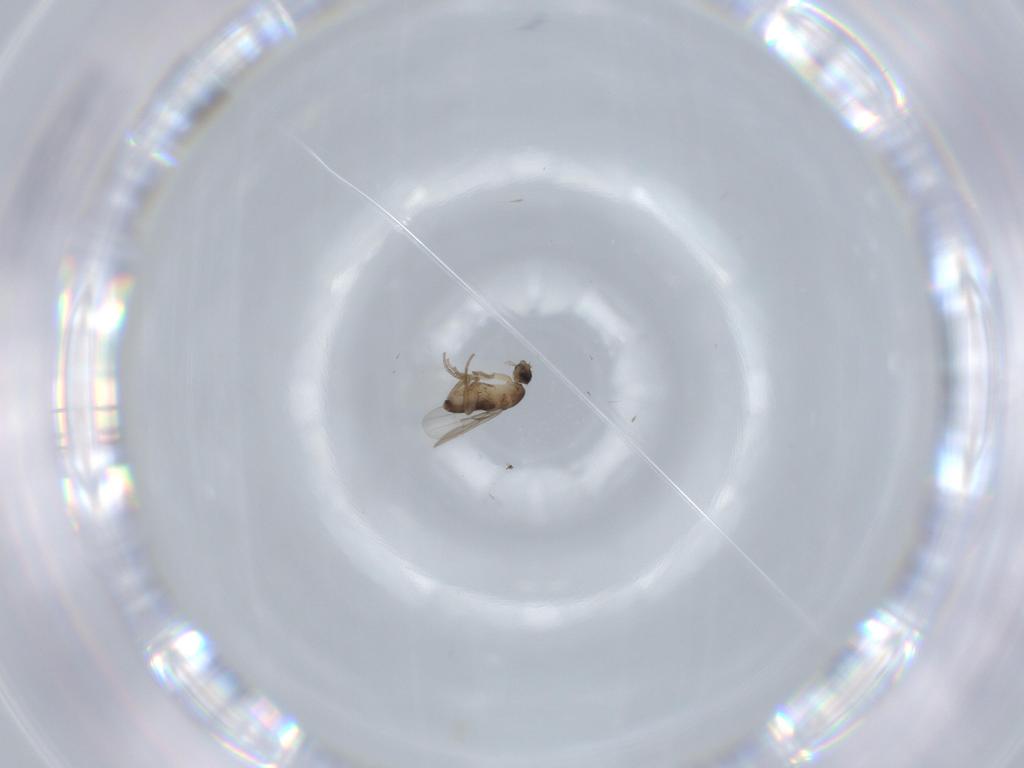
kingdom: Animalia
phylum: Arthropoda
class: Insecta
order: Diptera
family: Phoridae
